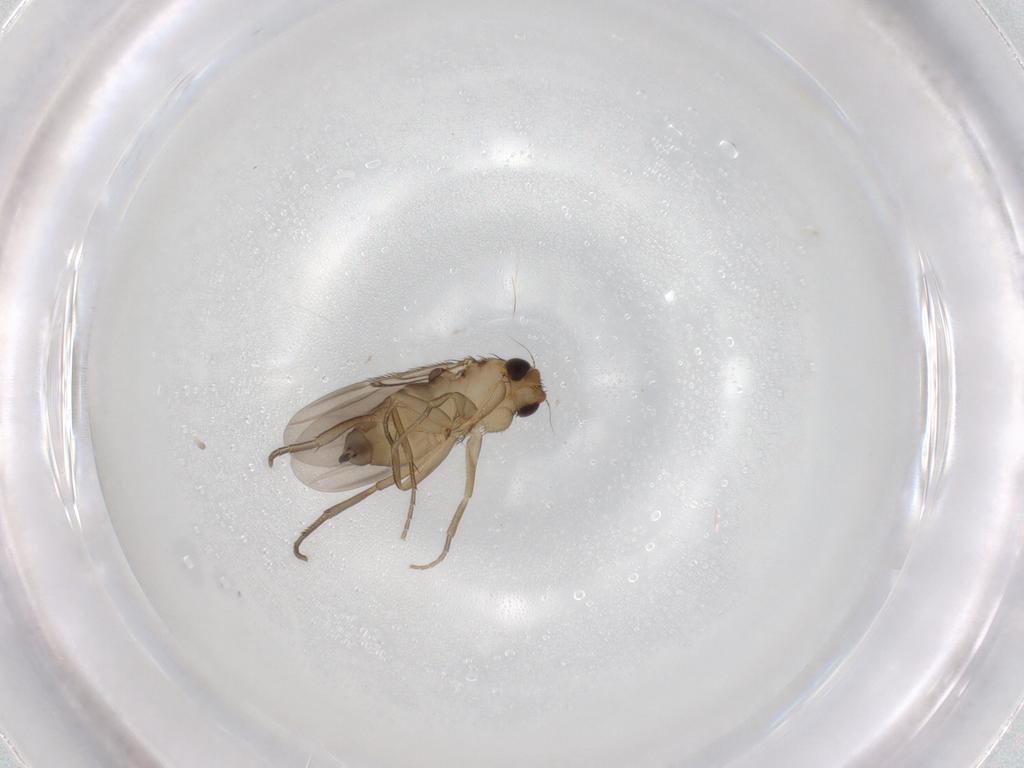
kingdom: Animalia
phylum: Arthropoda
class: Insecta
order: Diptera
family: Phoridae
